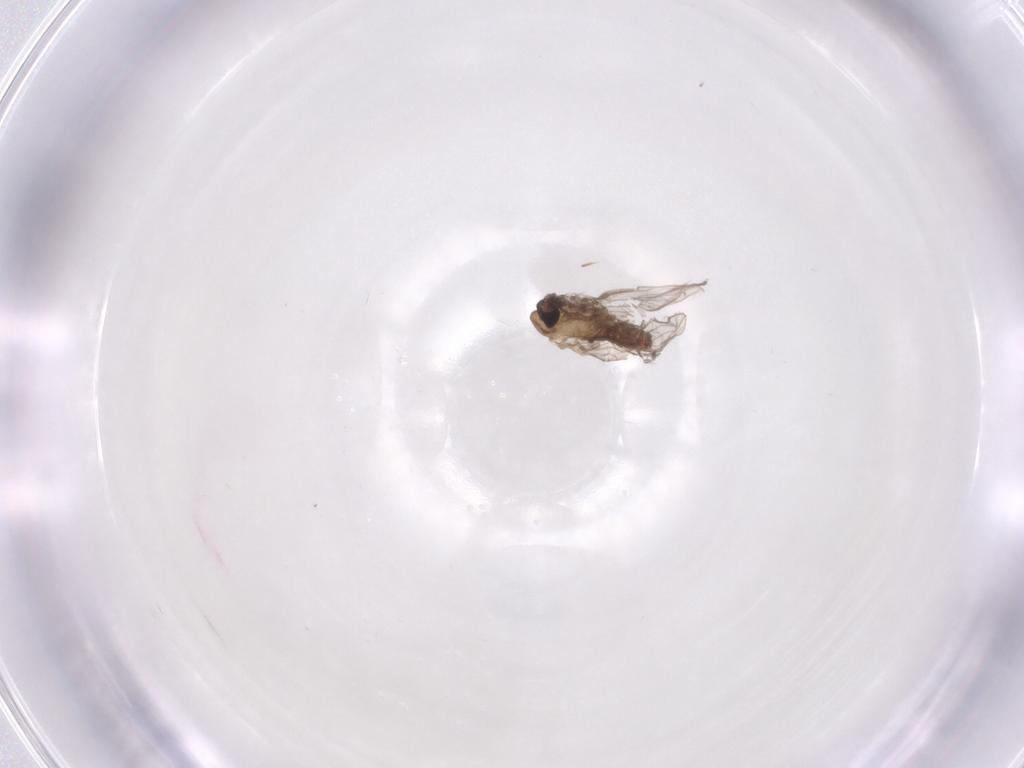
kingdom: Animalia
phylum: Arthropoda
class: Insecta
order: Diptera
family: Cecidomyiidae
